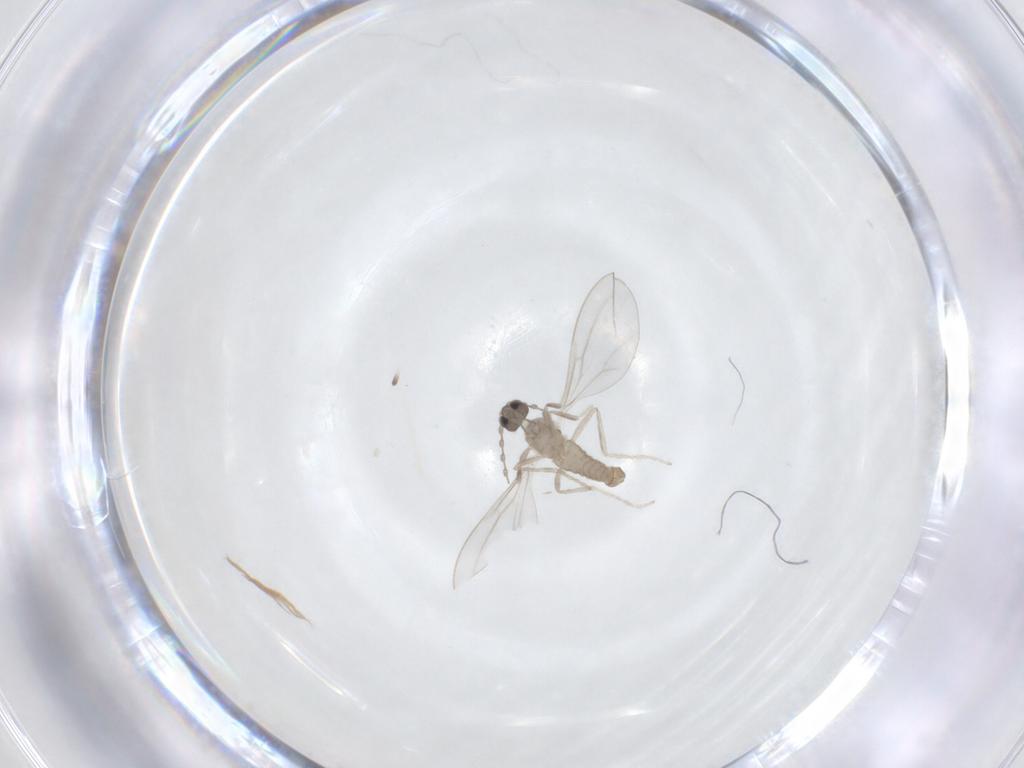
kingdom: Animalia
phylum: Arthropoda
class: Insecta
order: Diptera
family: Cecidomyiidae
